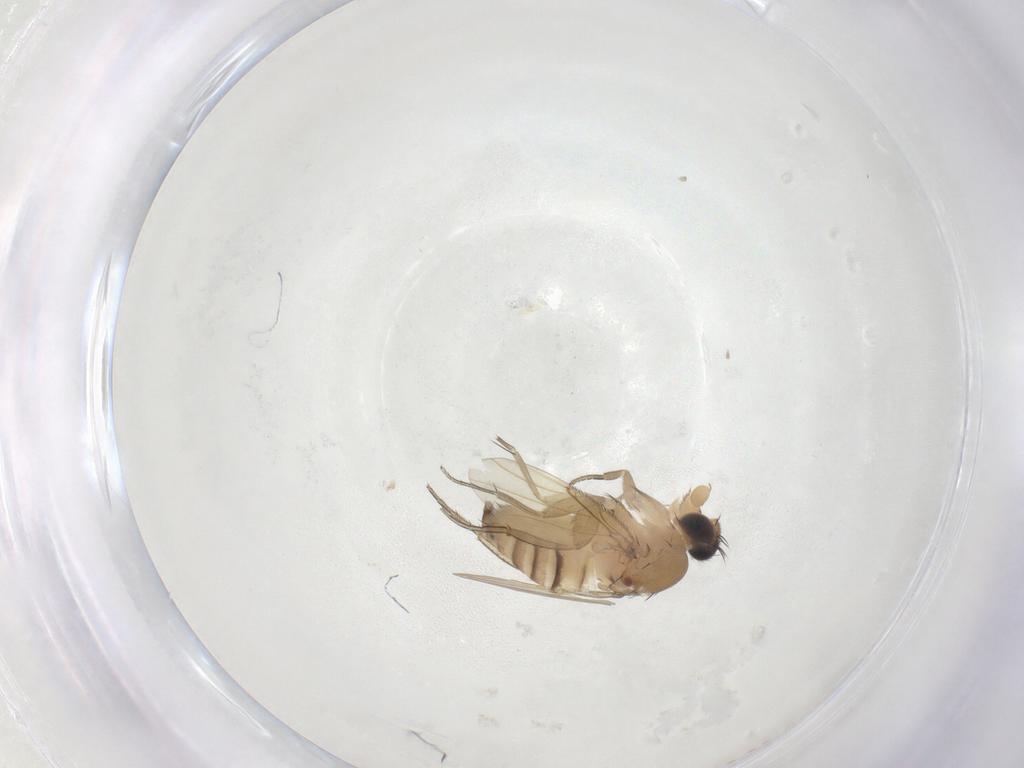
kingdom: Animalia
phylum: Arthropoda
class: Insecta
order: Diptera
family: Phoridae
